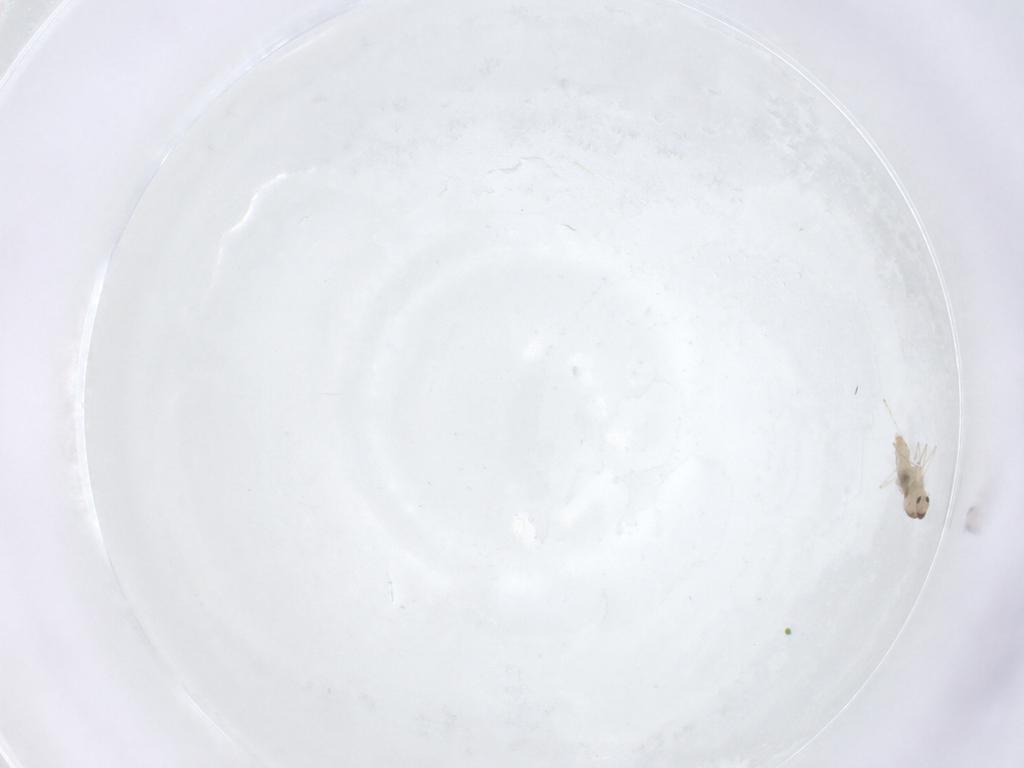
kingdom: Animalia
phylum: Arthropoda
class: Insecta
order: Diptera
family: Cecidomyiidae
